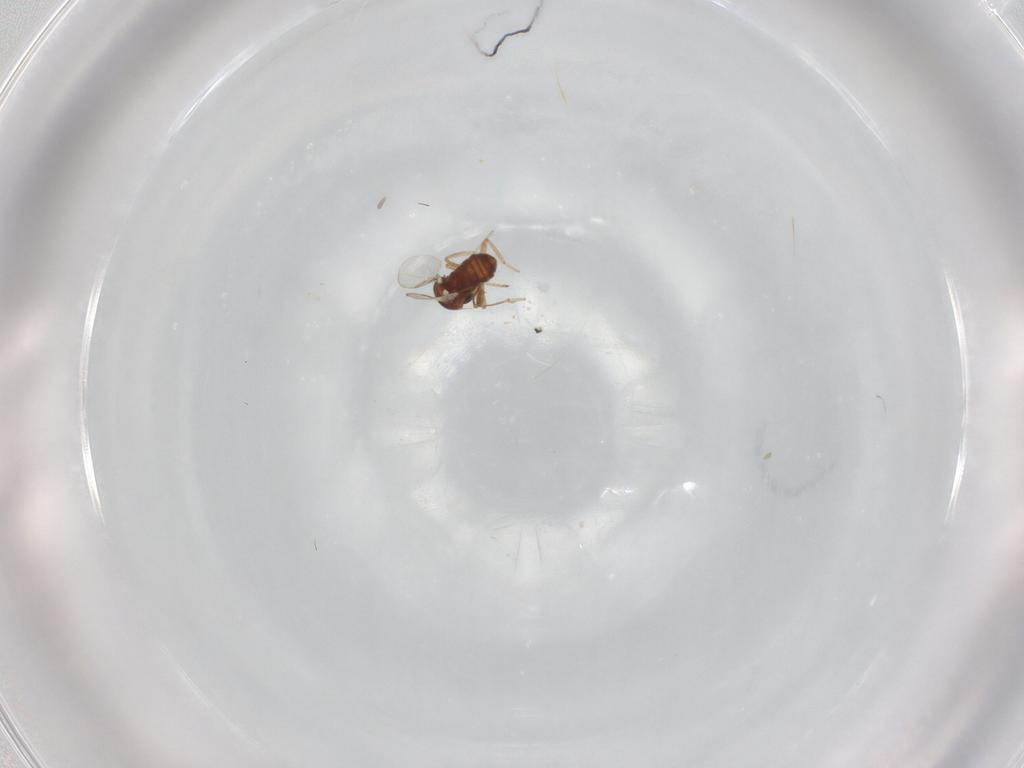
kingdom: Animalia
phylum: Arthropoda
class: Insecta
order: Diptera
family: Ceratopogonidae
